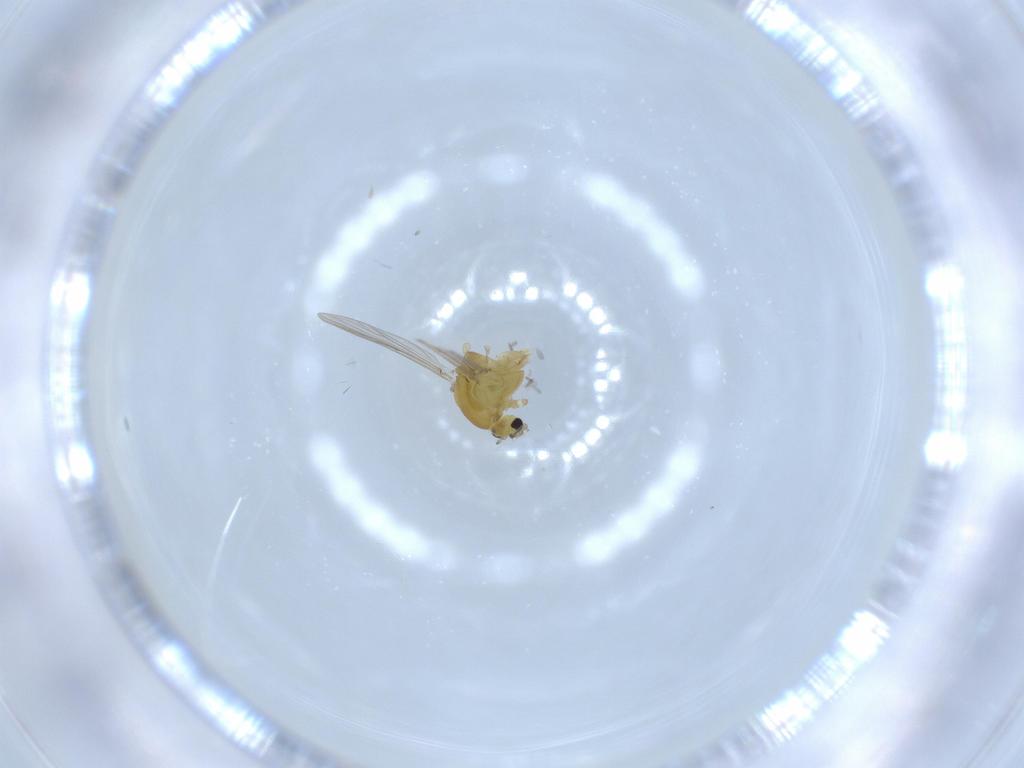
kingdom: Animalia
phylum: Arthropoda
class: Insecta
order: Diptera
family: Chironomidae
